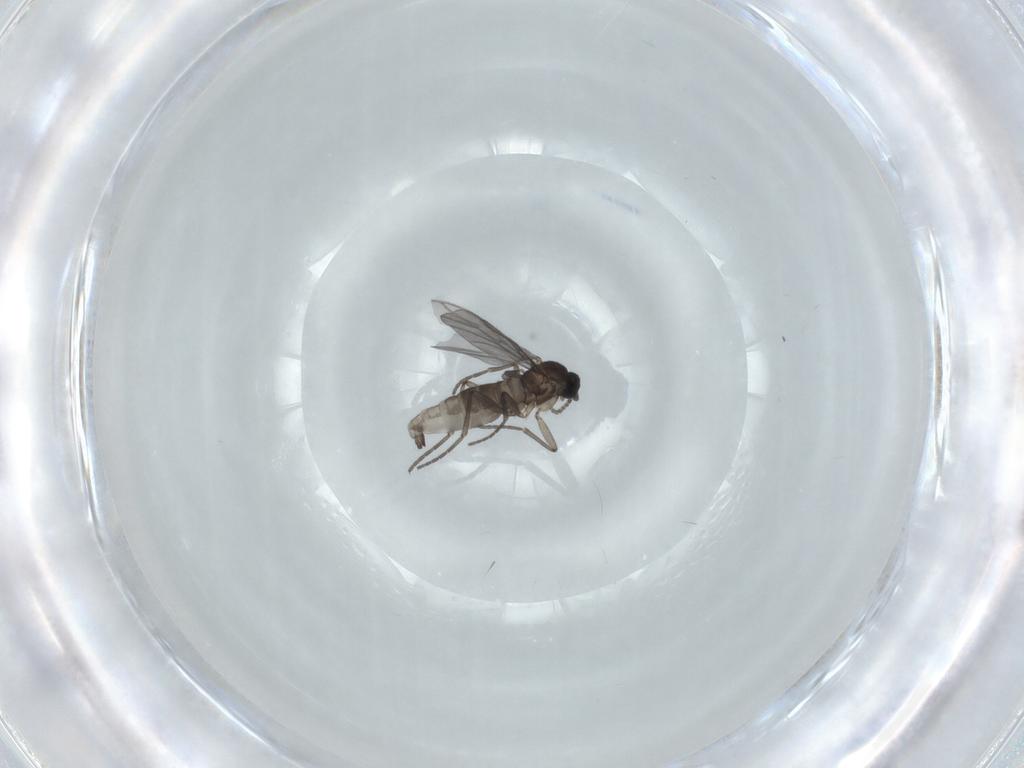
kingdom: Animalia
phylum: Arthropoda
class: Insecta
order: Diptera
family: Sciaridae
